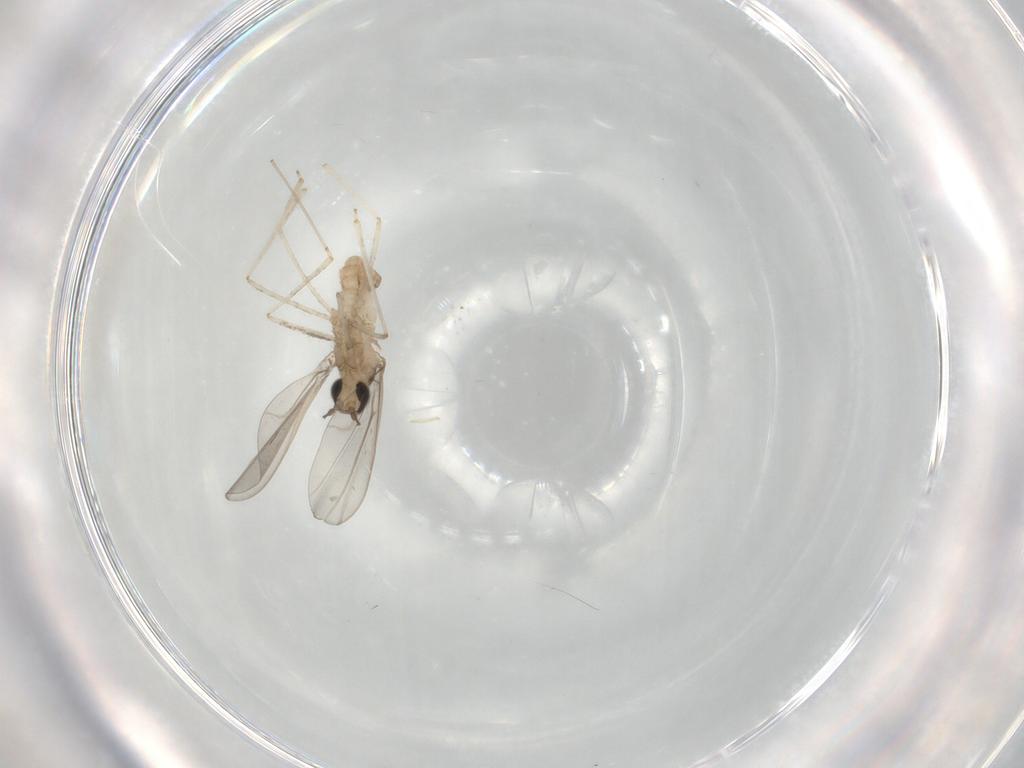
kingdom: Animalia
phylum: Arthropoda
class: Insecta
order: Diptera
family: Cecidomyiidae
